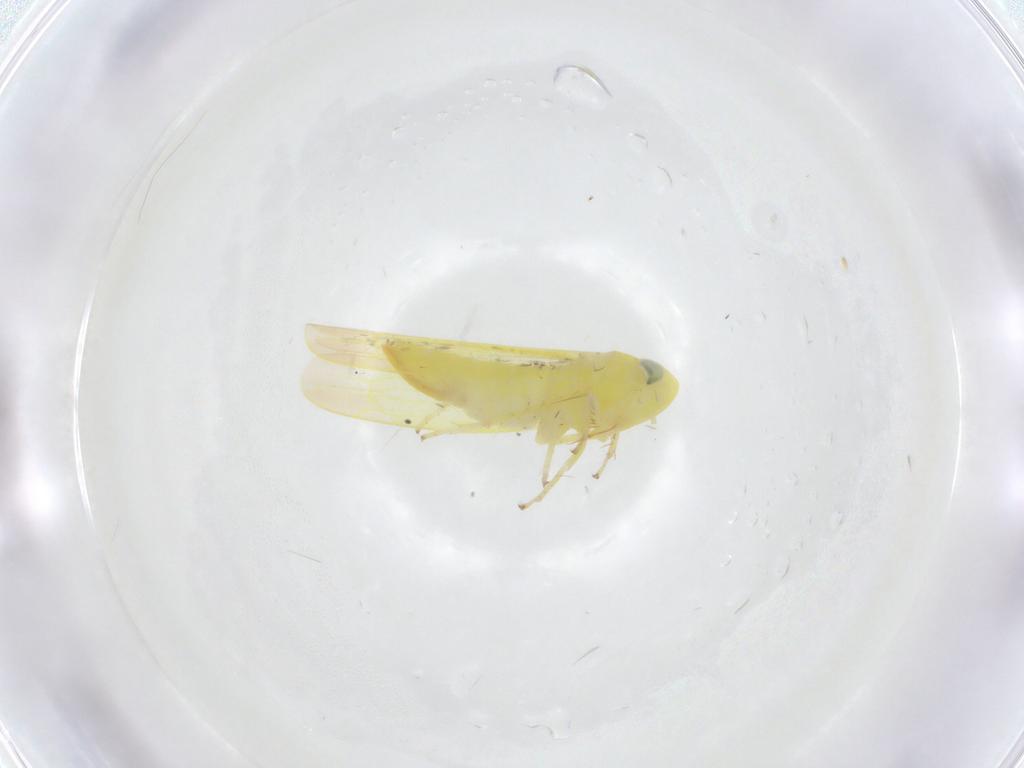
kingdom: Animalia
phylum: Arthropoda
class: Insecta
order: Hemiptera
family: Cicadellidae
